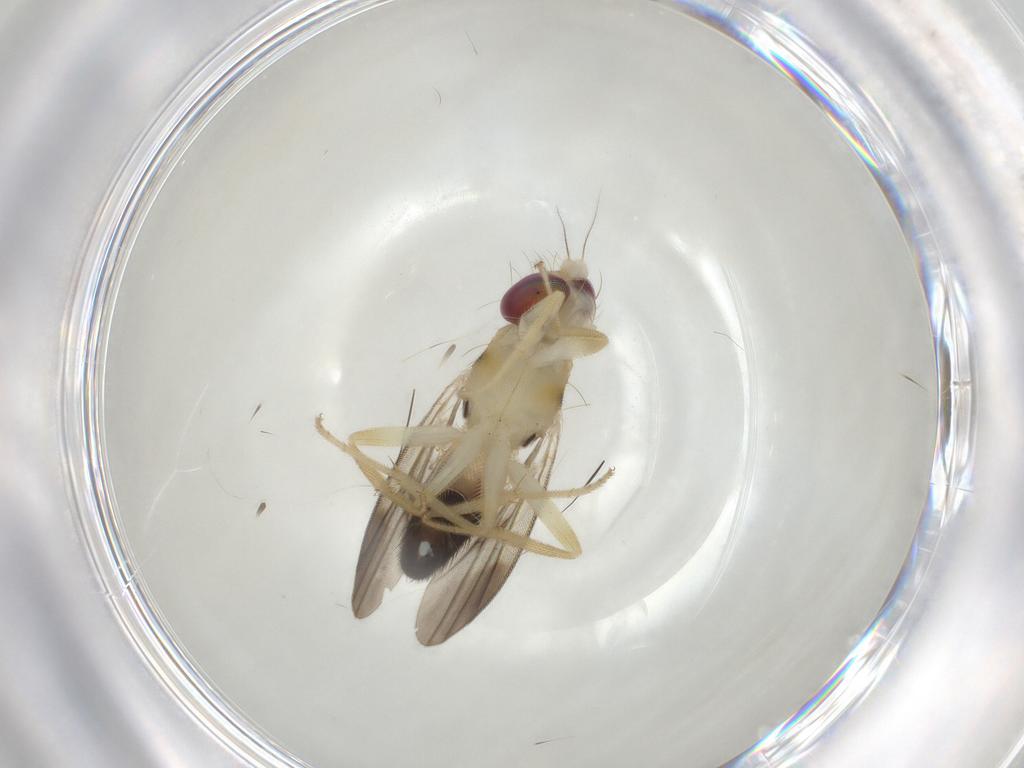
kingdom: Animalia
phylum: Arthropoda
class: Insecta
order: Diptera
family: Clusiidae
